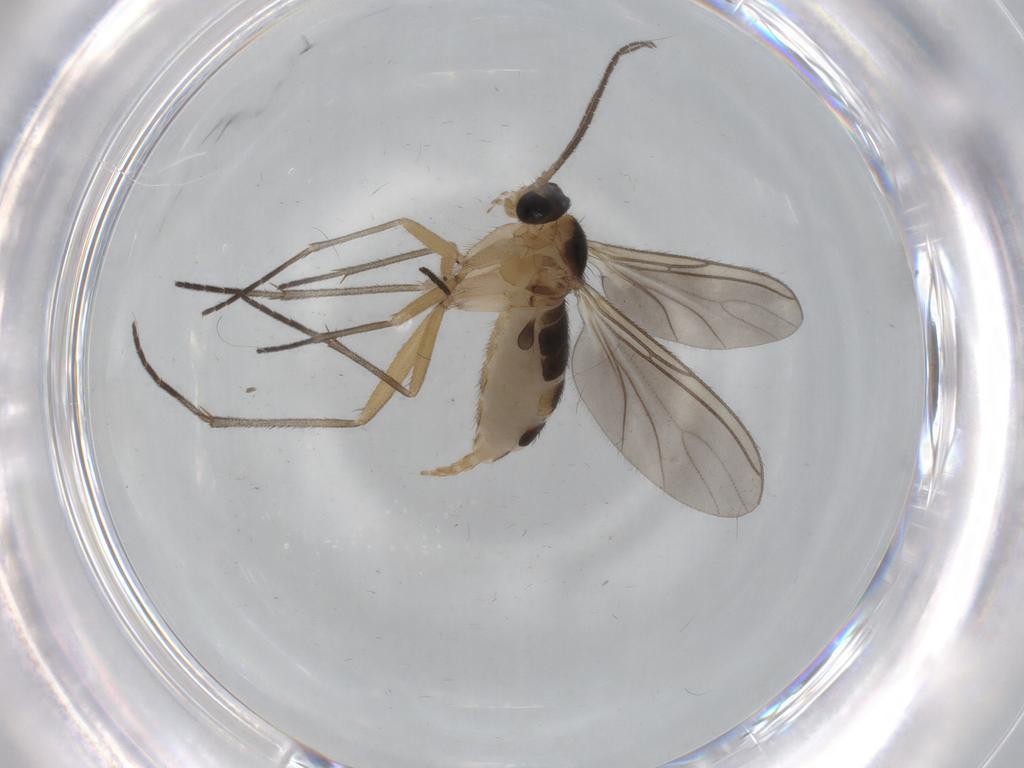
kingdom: Animalia
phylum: Arthropoda
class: Insecta
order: Diptera
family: Sciaridae
